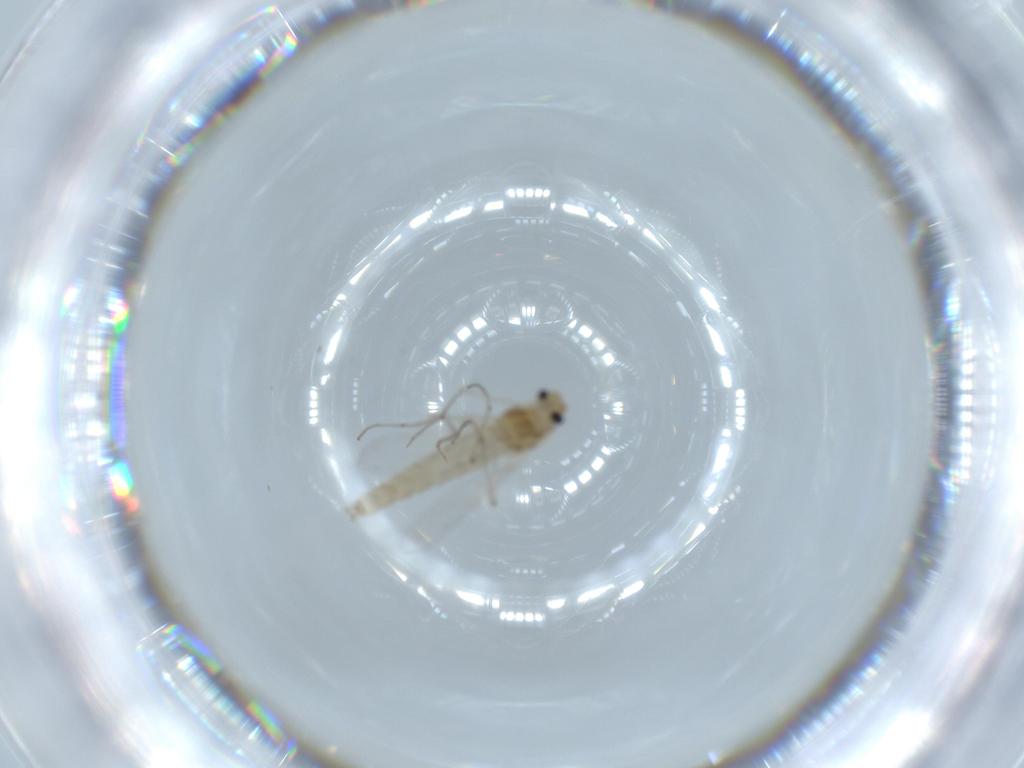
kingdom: Animalia
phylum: Arthropoda
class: Insecta
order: Diptera
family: Chironomidae
